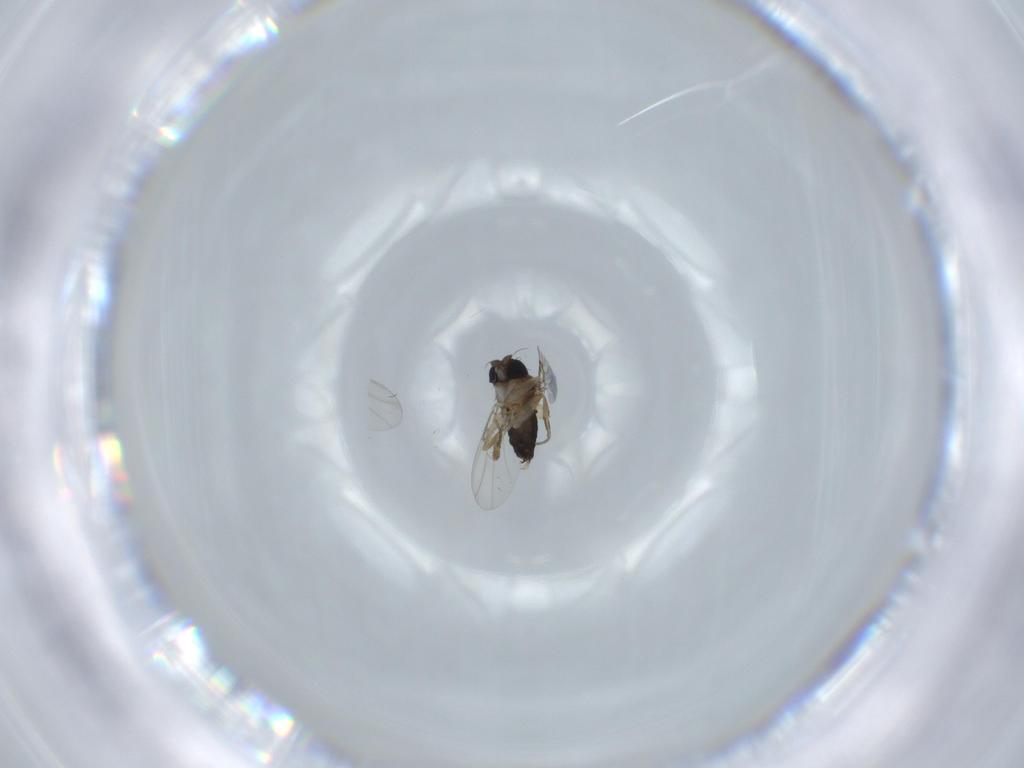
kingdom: Animalia
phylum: Arthropoda
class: Insecta
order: Diptera
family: Phoridae
